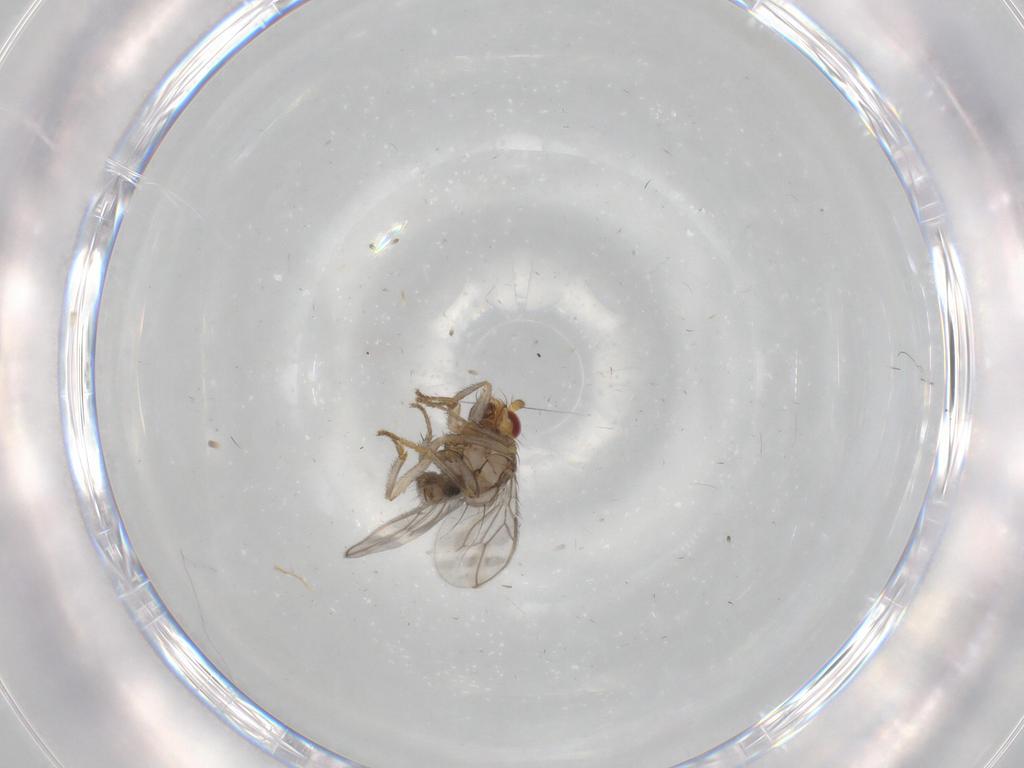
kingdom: Animalia
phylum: Arthropoda
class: Insecta
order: Diptera
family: Sphaeroceridae
